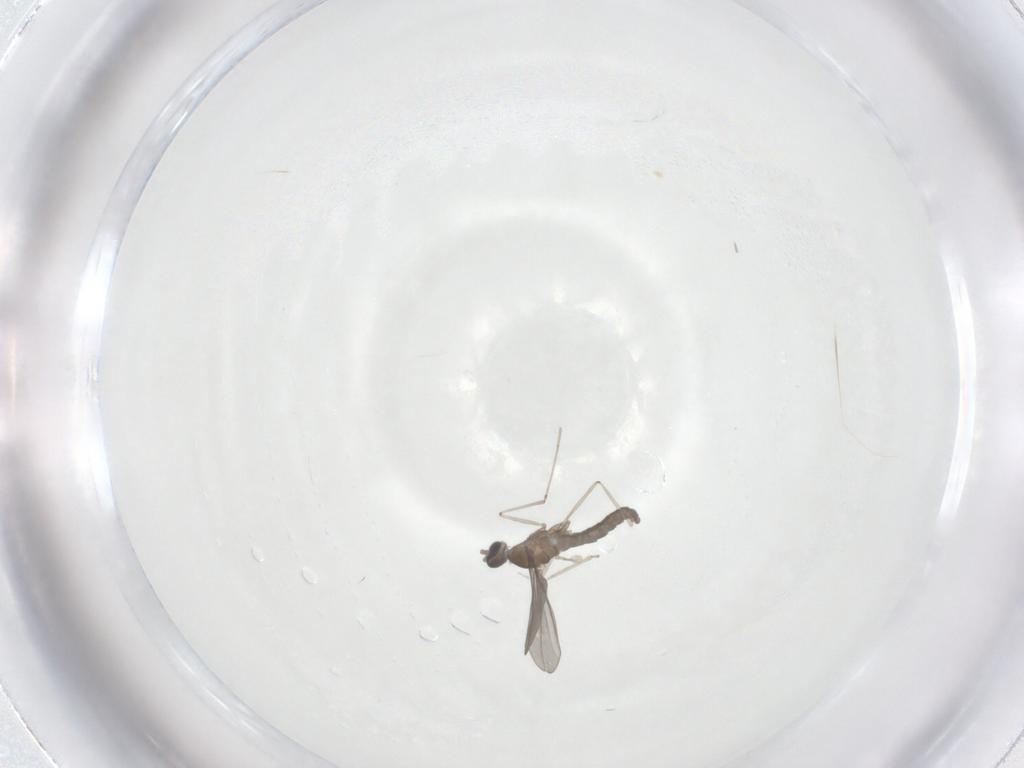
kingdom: Animalia
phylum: Arthropoda
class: Insecta
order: Diptera
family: Cecidomyiidae
